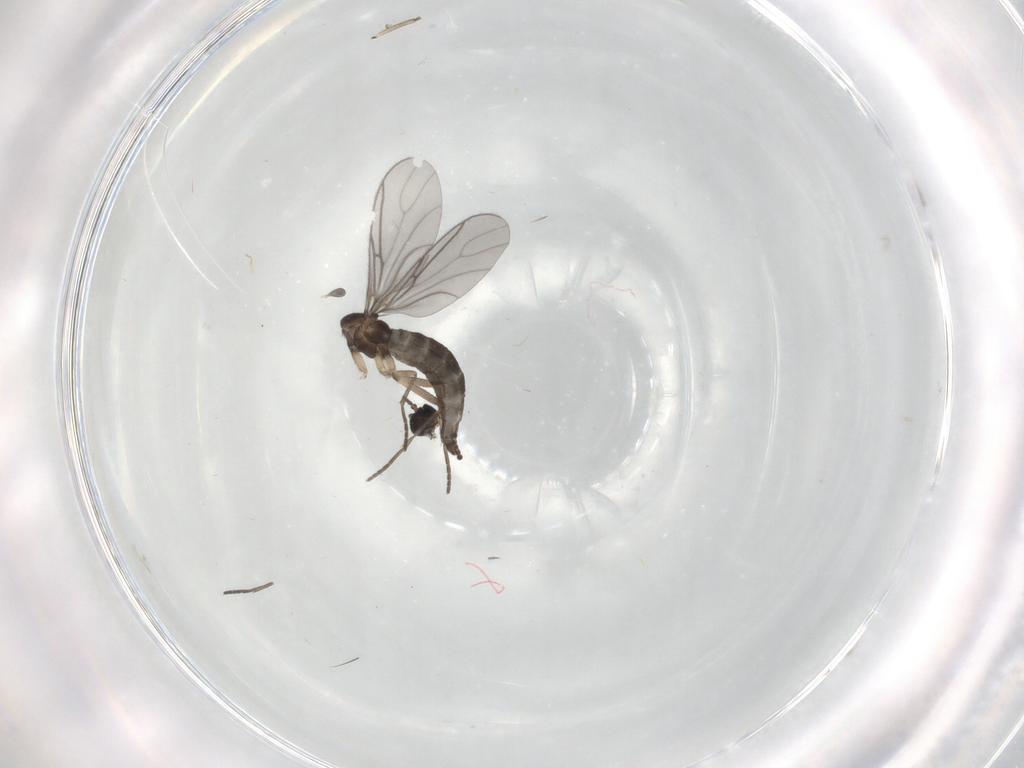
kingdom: Animalia
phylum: Arthropoda
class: Insecta
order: Diptera
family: Sciaridae
